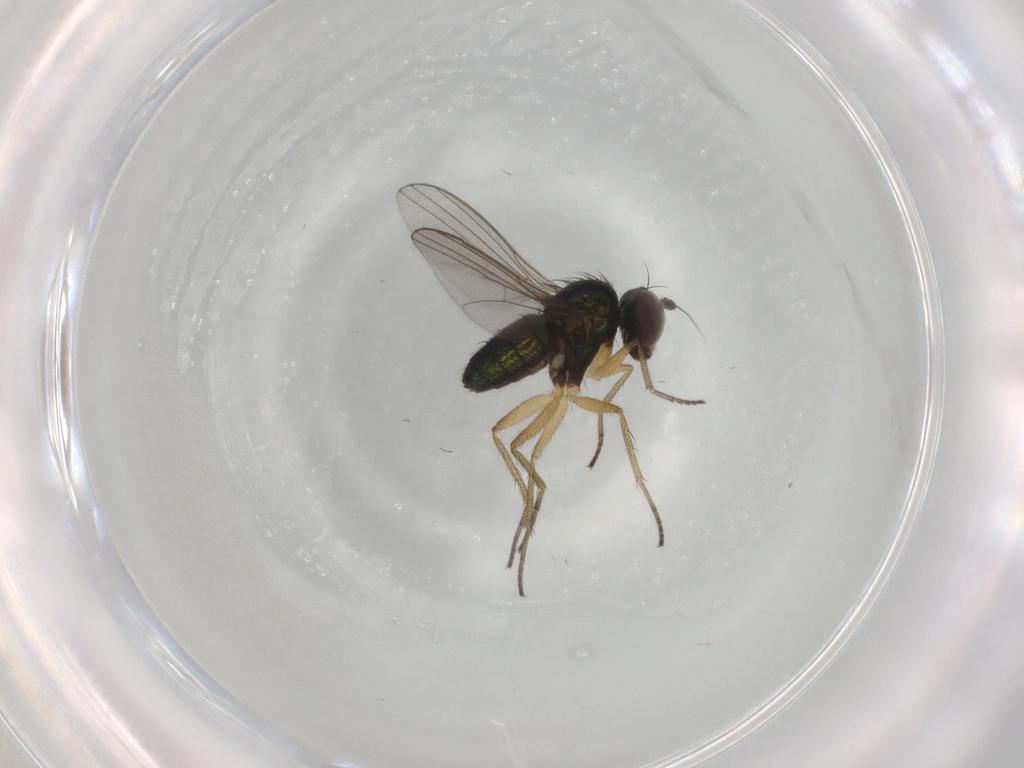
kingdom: Animalia
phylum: Arthropoda
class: Insecta
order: Diptera
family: Dolichopodidae
